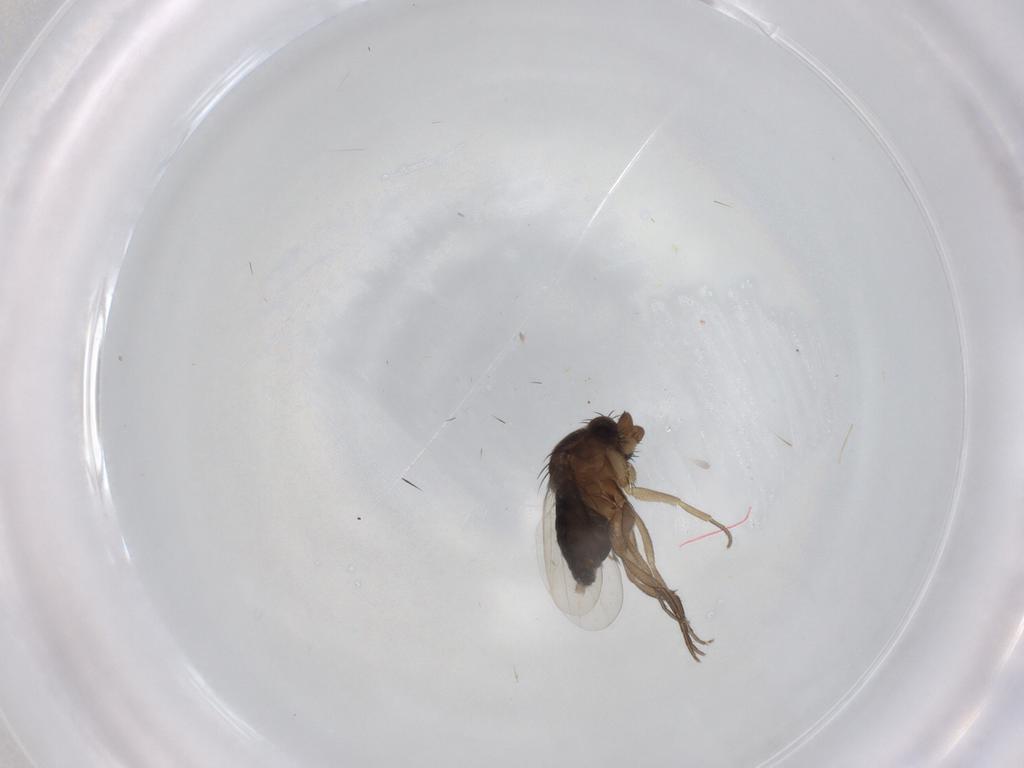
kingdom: Animalia
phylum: Arthropoda
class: Insecta
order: Diptera
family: Phoridae
